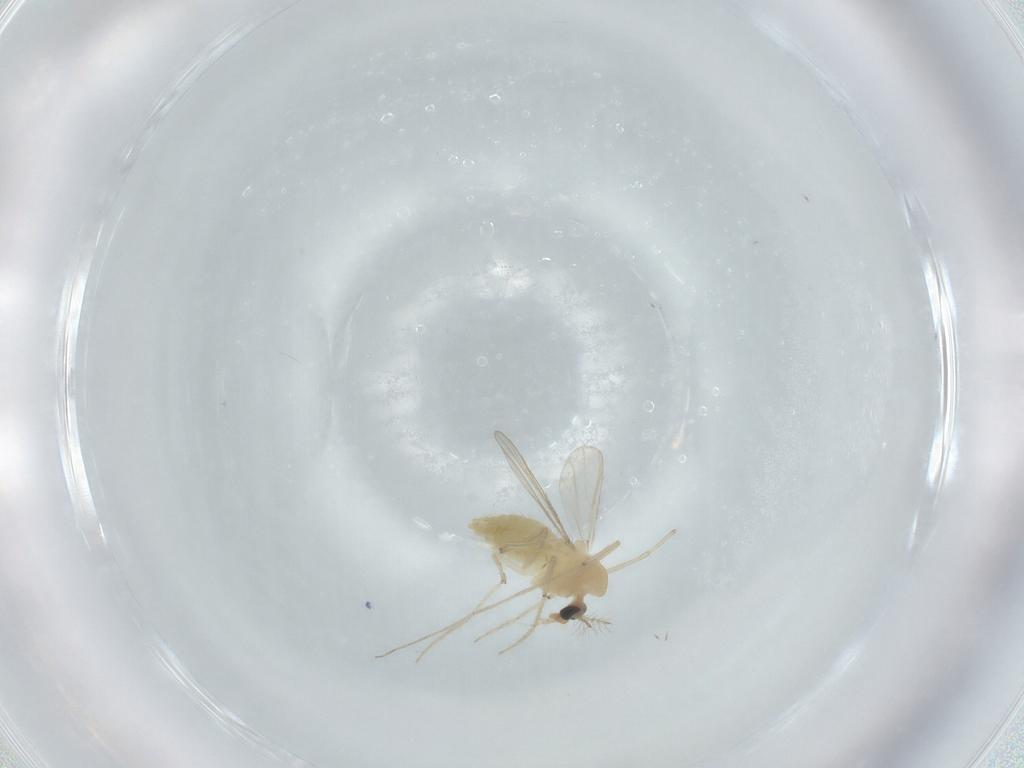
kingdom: Animalia
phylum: Arthropoda
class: Insecta
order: Diptera
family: Chironomidae
